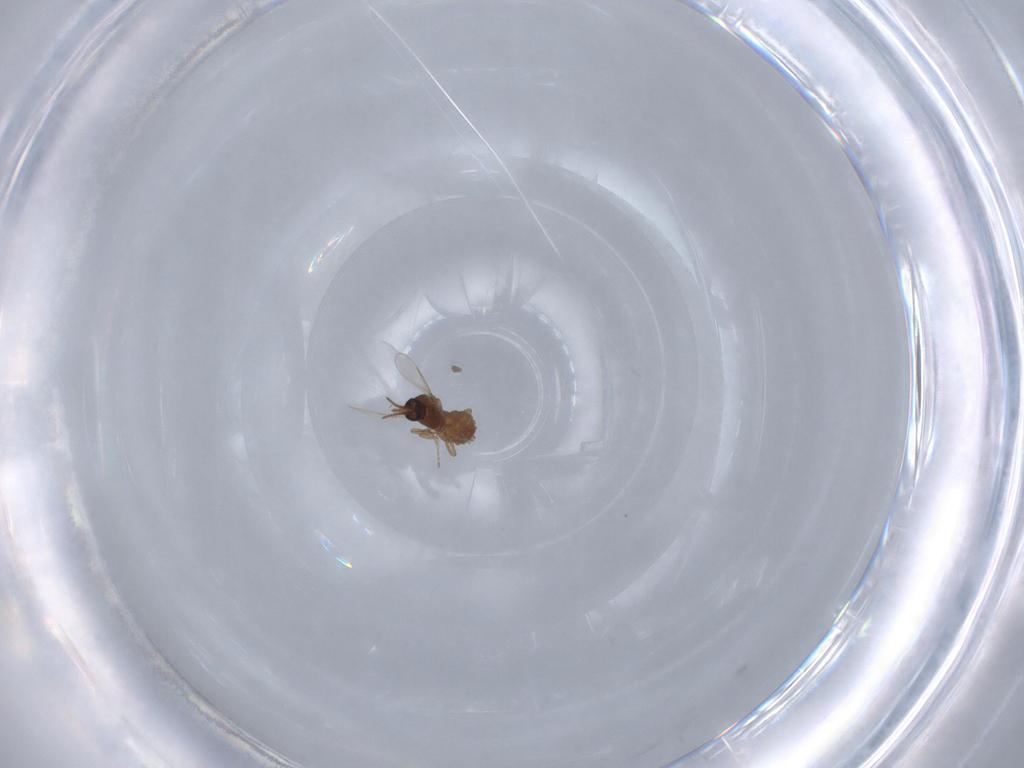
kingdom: Animalia
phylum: Arthropoda
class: Insecta
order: Diptera
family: Ceratopogonidae
